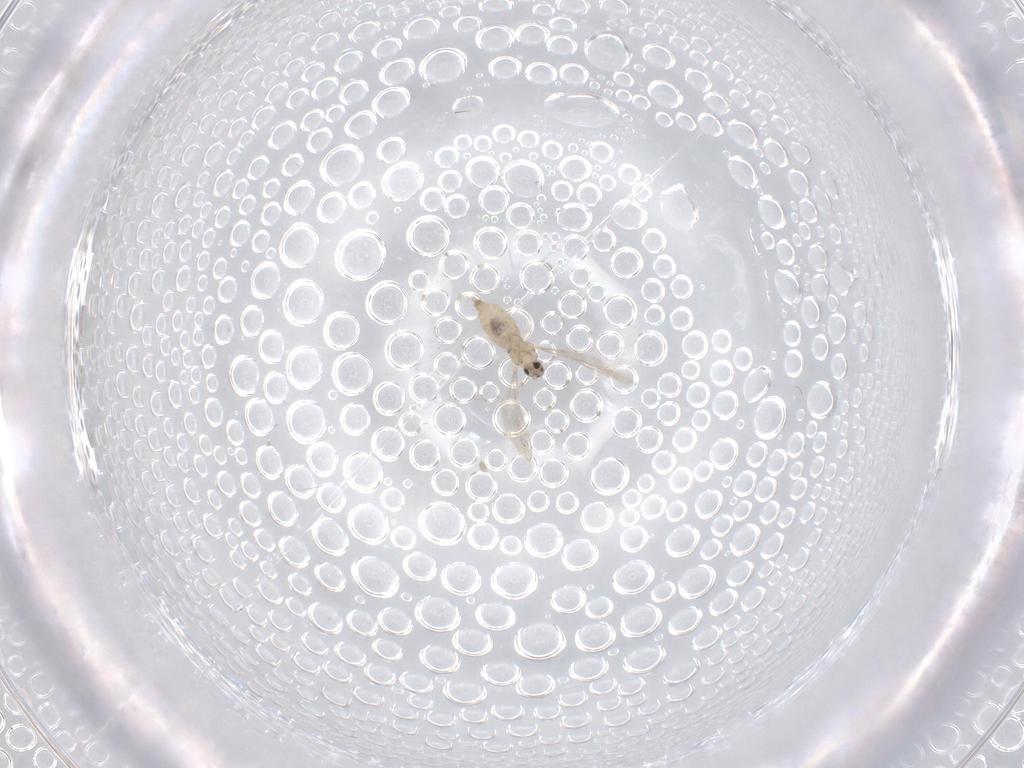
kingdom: Animalia
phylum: Arthropoda
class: Insecta
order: Diptera
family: Cecidomyiidae
